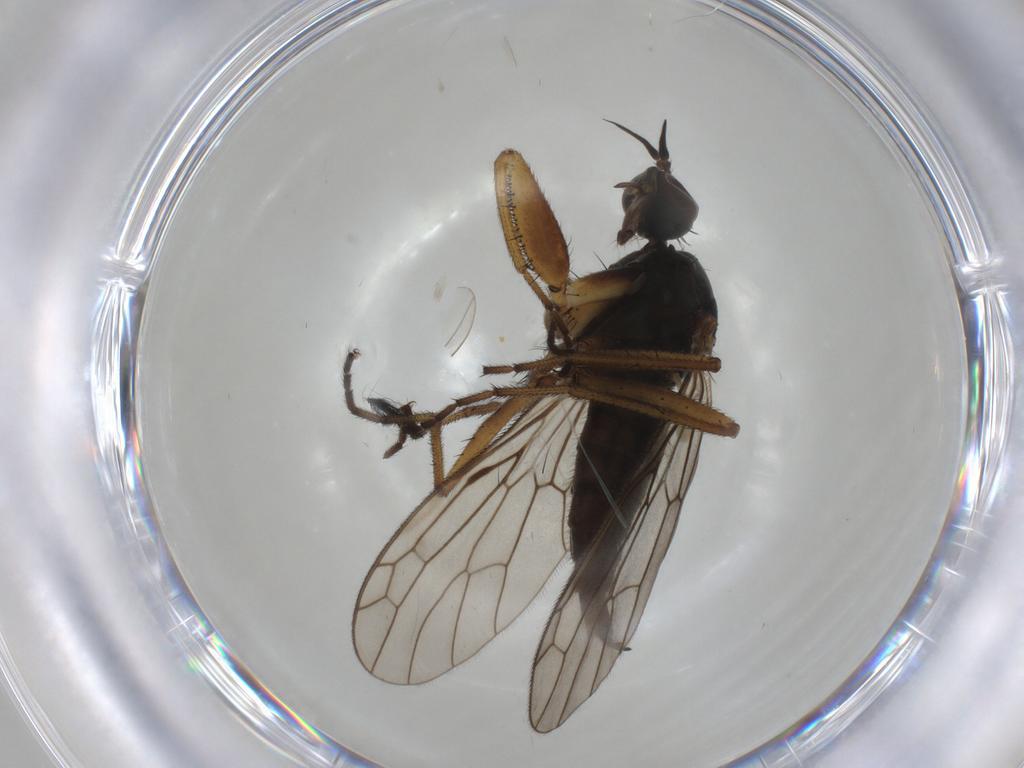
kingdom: Animalia
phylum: Arthropoda
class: Insecta
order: Diptera
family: Empididae
